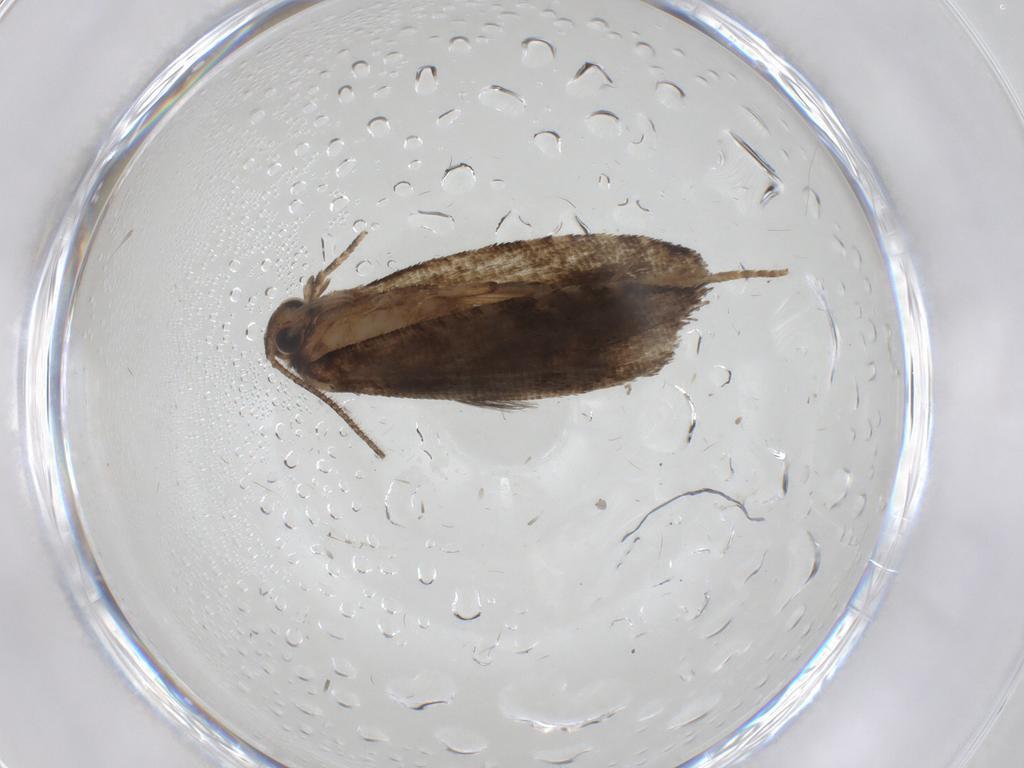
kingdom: Animalia
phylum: Arthropoda
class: Insecta
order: Lepidoptera
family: Tortricidae
